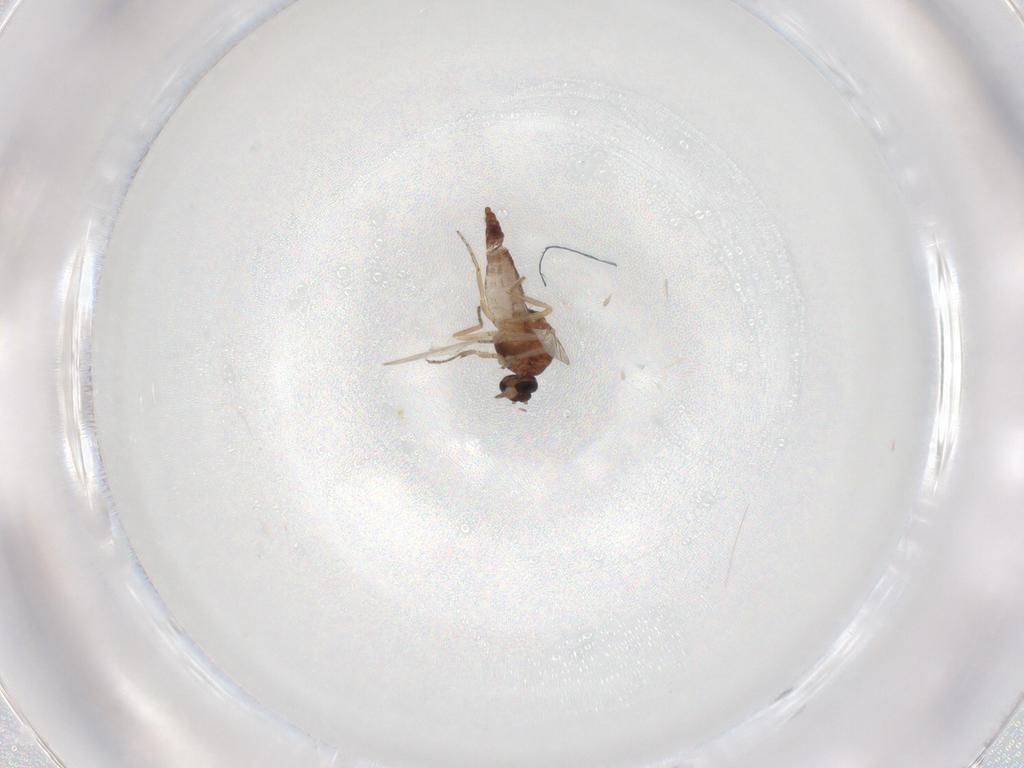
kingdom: Animalia
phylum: Arthropoda
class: Insecta
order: Diptera
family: Ceratopogonidae
